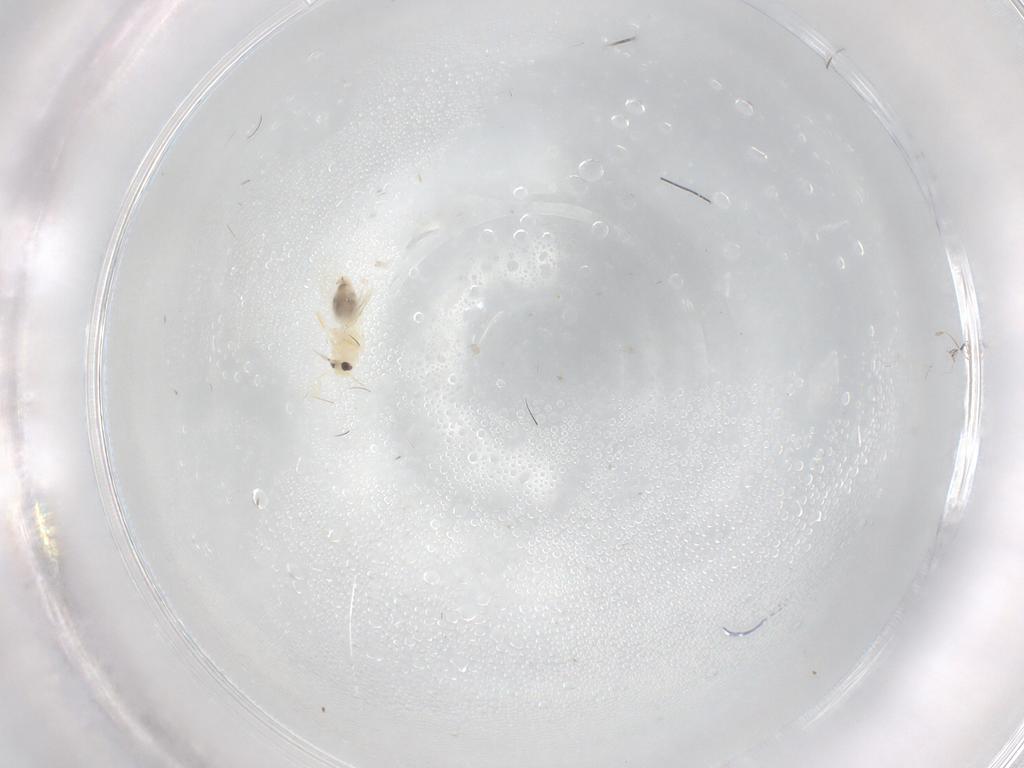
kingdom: Animalia
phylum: Arthropoda
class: Insecta
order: Hemiptera
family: Aleyrodidae
